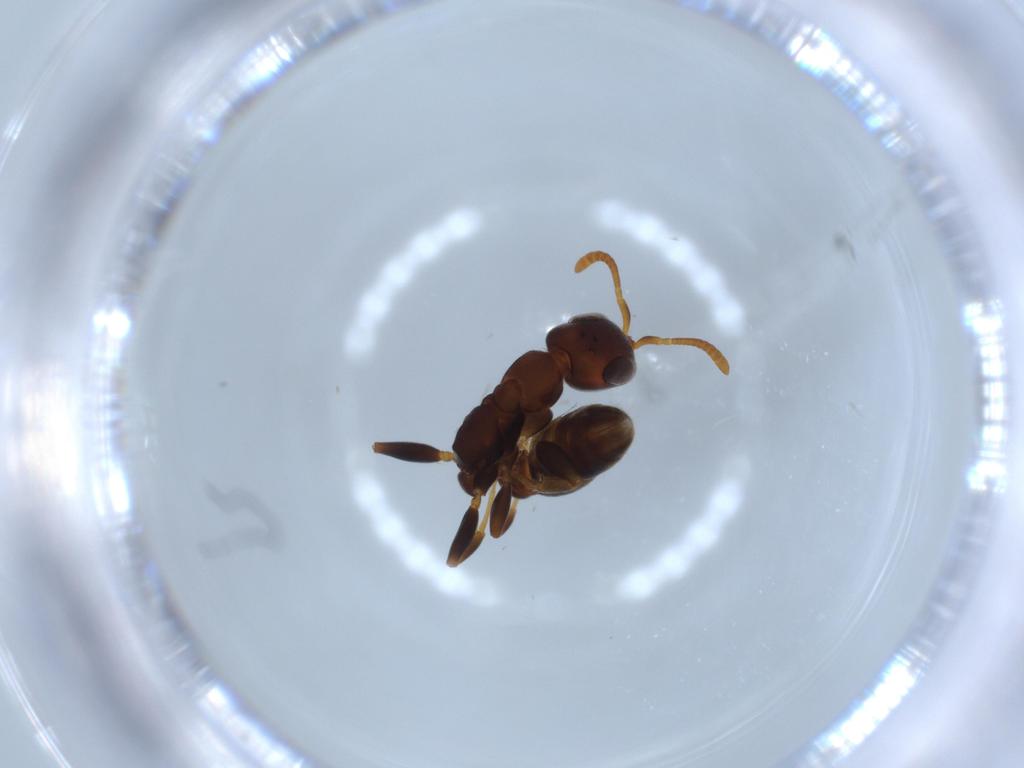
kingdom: Animalia
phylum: Arthropoda
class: Insecta
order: Hymenoptera
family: Formicidae
